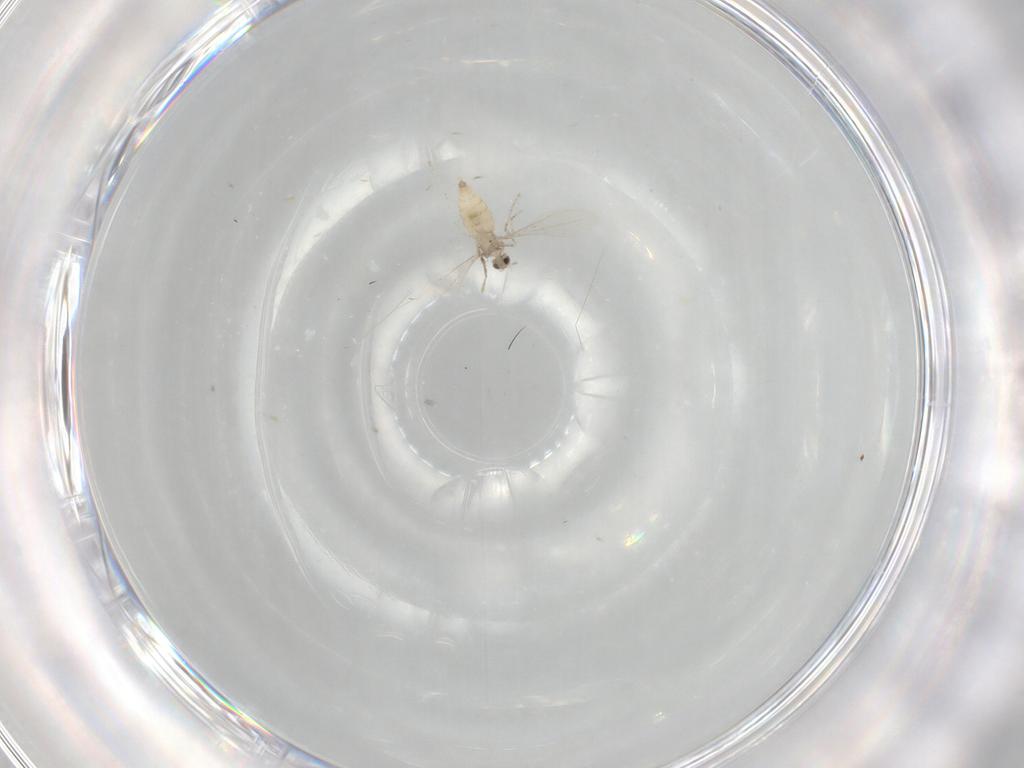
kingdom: Animalia
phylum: Arthropoda
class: Insecta
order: Diptera
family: Cecidomyiidae
